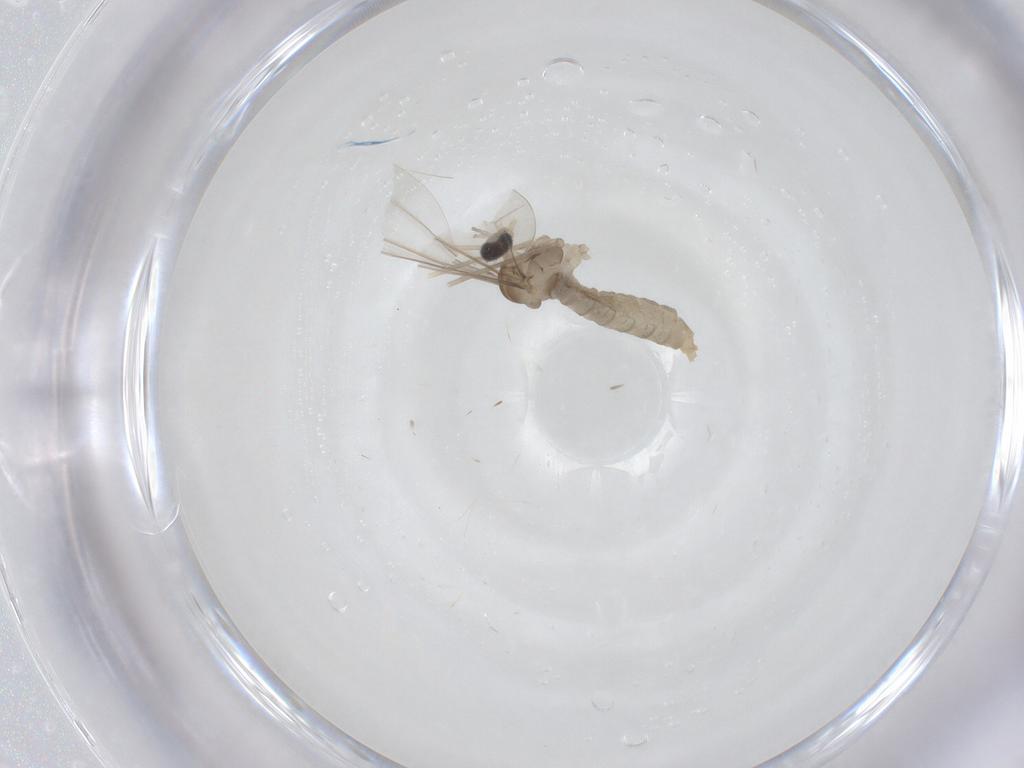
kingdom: Animalia
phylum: Arthropoda
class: Insecta
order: Diptera
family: Cecidomyiidae
